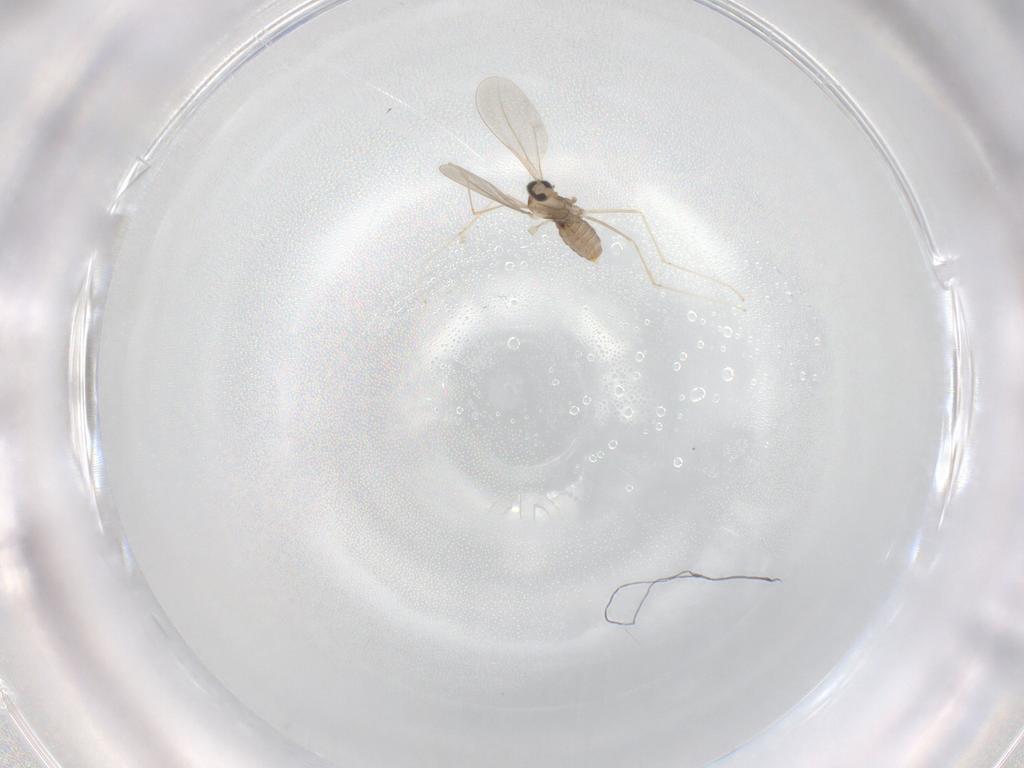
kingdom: Animalia
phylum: Arthropoda
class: Insecta
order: Diptera
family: Cecidomyiidae
